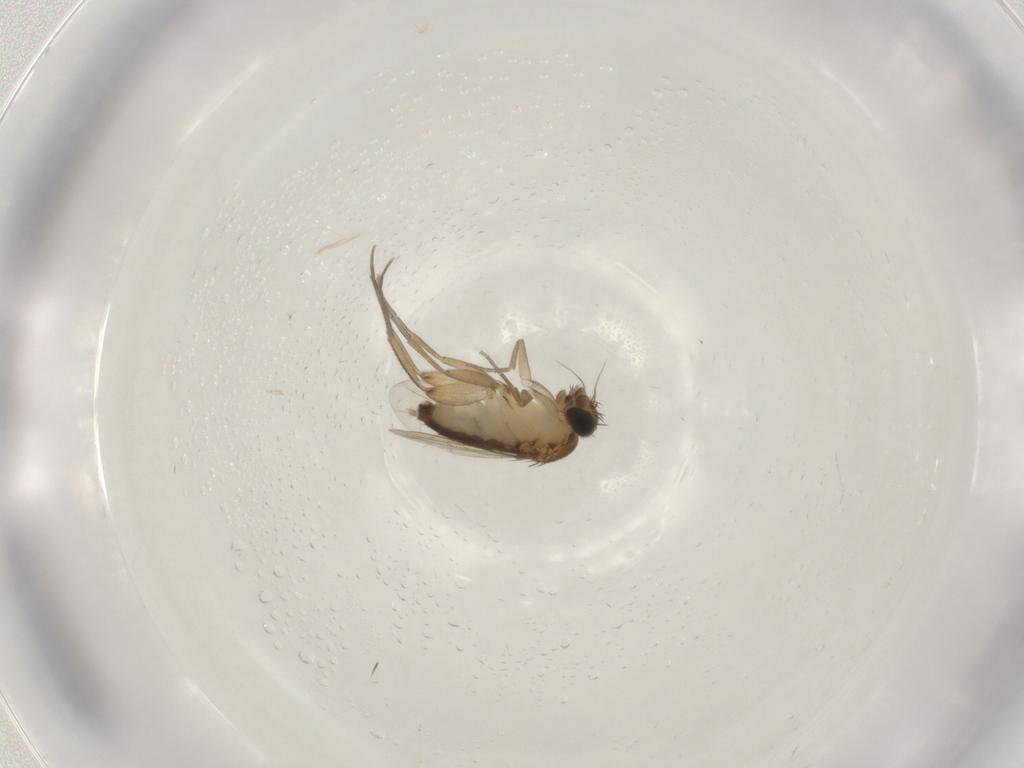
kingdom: Animalia
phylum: Arthropoda
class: Insecta
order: Diptera
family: Phoridae
